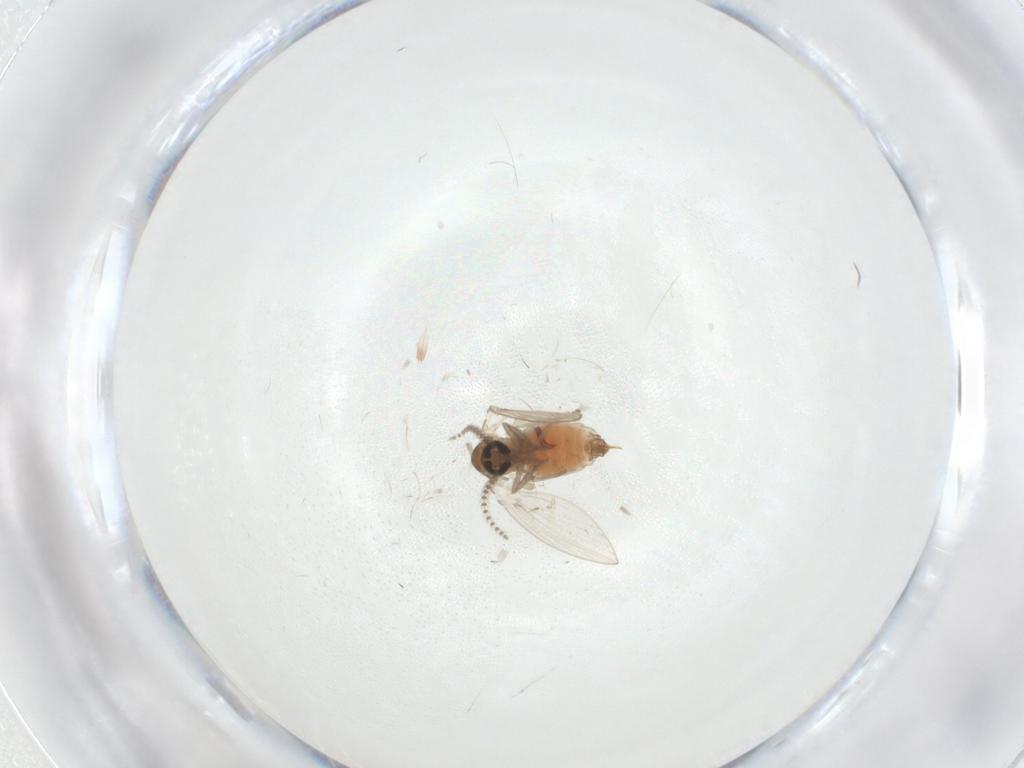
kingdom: Animalia
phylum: Arthropoda
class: Insecta
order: Diptera
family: Psychodidae
